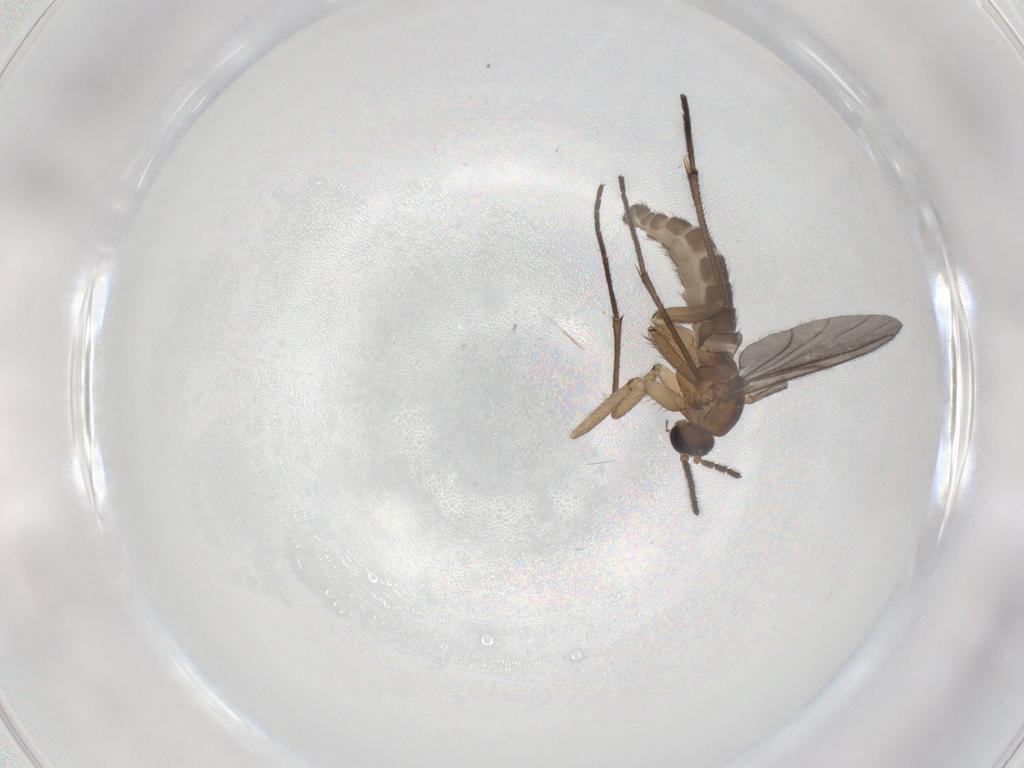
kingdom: Animalia
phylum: Arthropoda
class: Insecta
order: Diptera
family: Sciaridae
